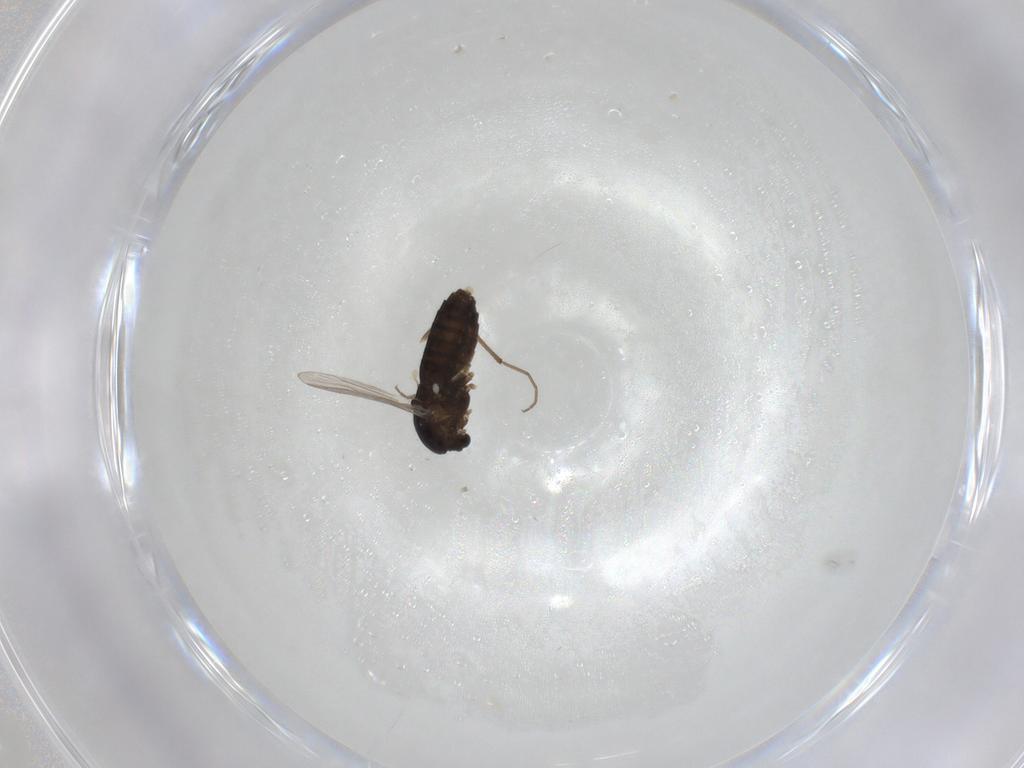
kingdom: Animalia
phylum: Arthropoda
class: Insecta
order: Diptera
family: Chironomidae
